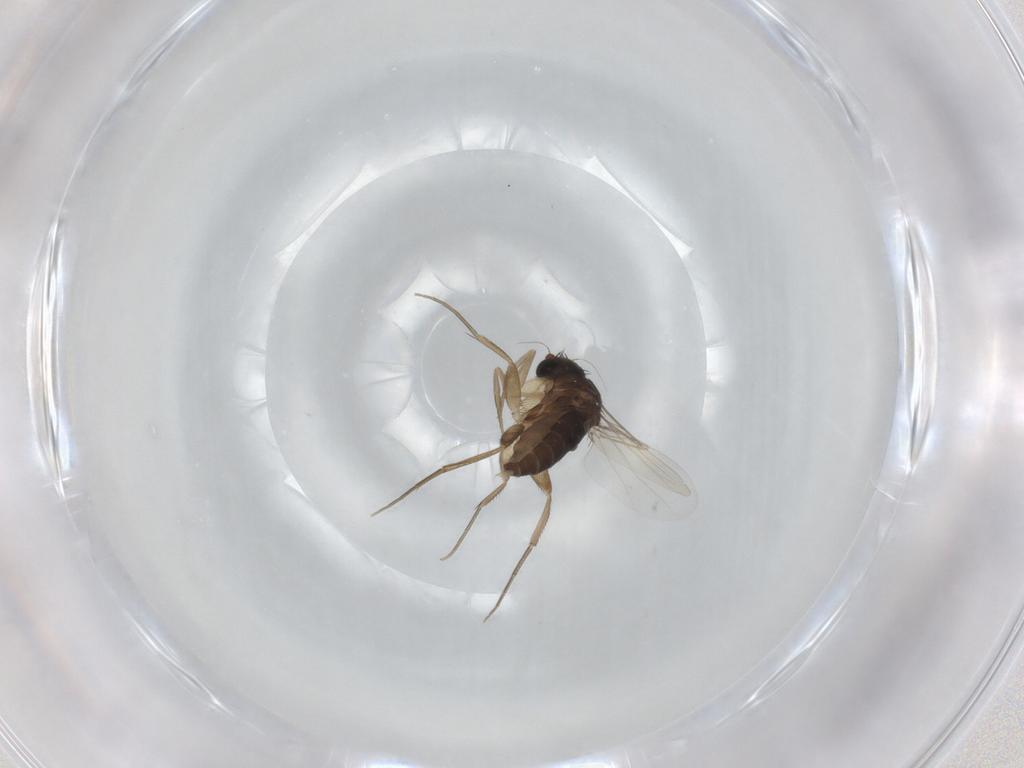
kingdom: Animalia
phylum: Arthropoda
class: Insecta
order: Diptera
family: Phoridae
